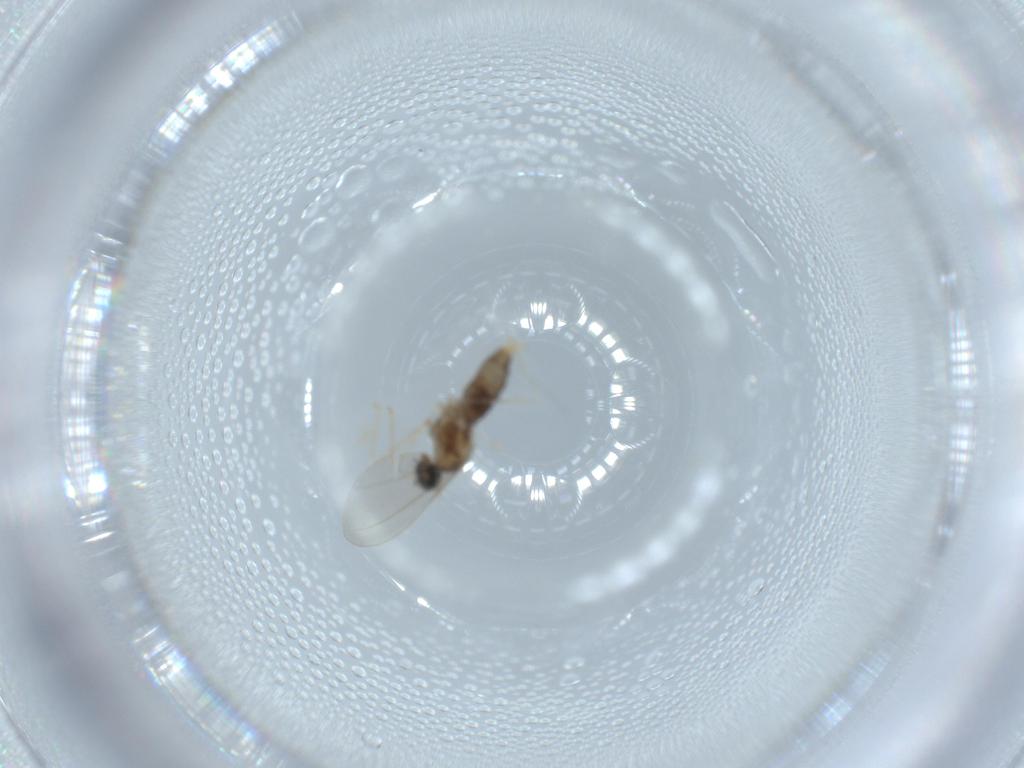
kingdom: Animalia
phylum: Arthropoda
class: Insecta
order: Diptera
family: Cecidomyiidae
